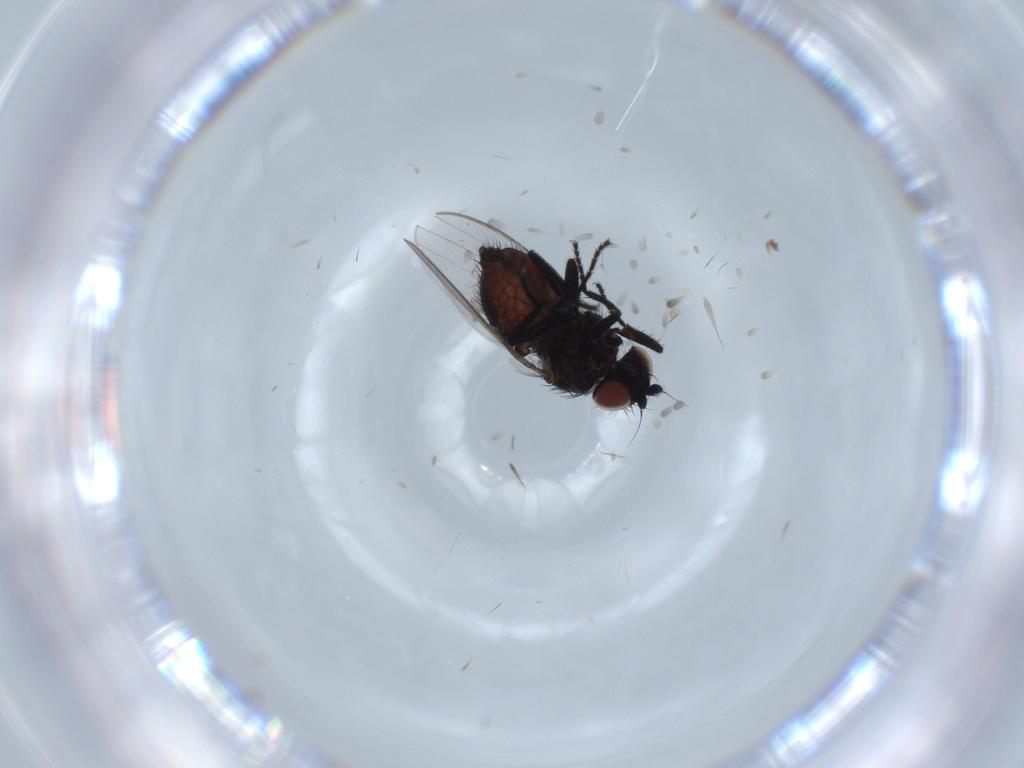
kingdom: Animalia
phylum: Arthropoda
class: Insecta
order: Diptera
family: Milichiidae
